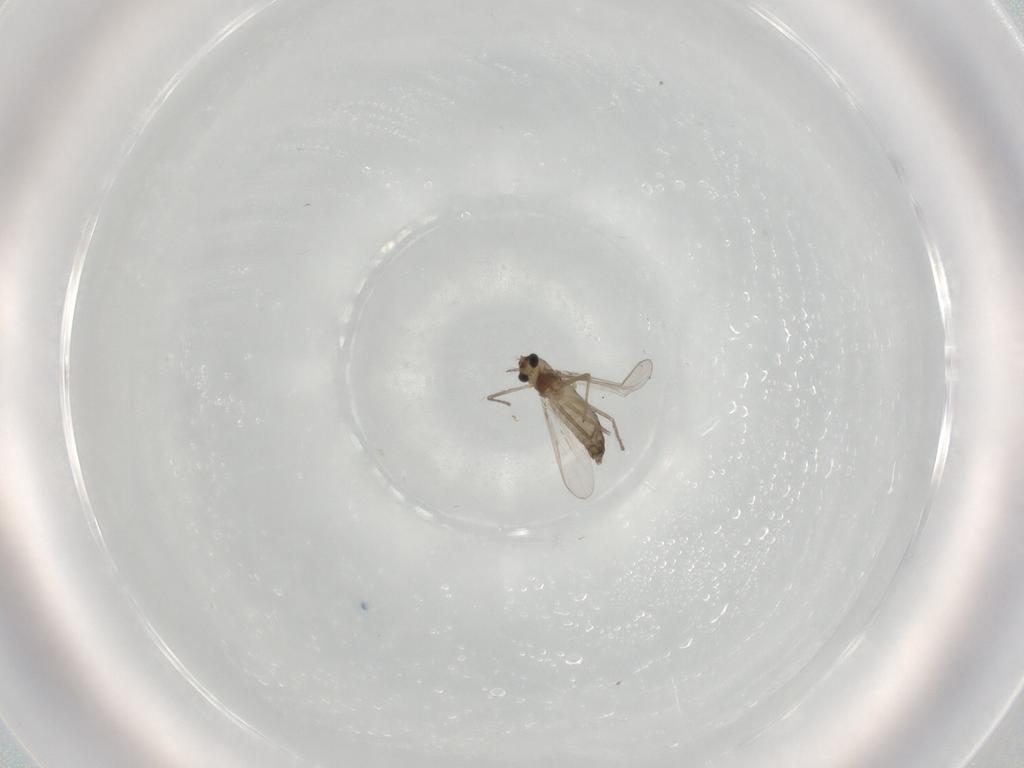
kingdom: Animalia
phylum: Arthropoda
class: Insecta
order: Diptera
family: Chironomidae
